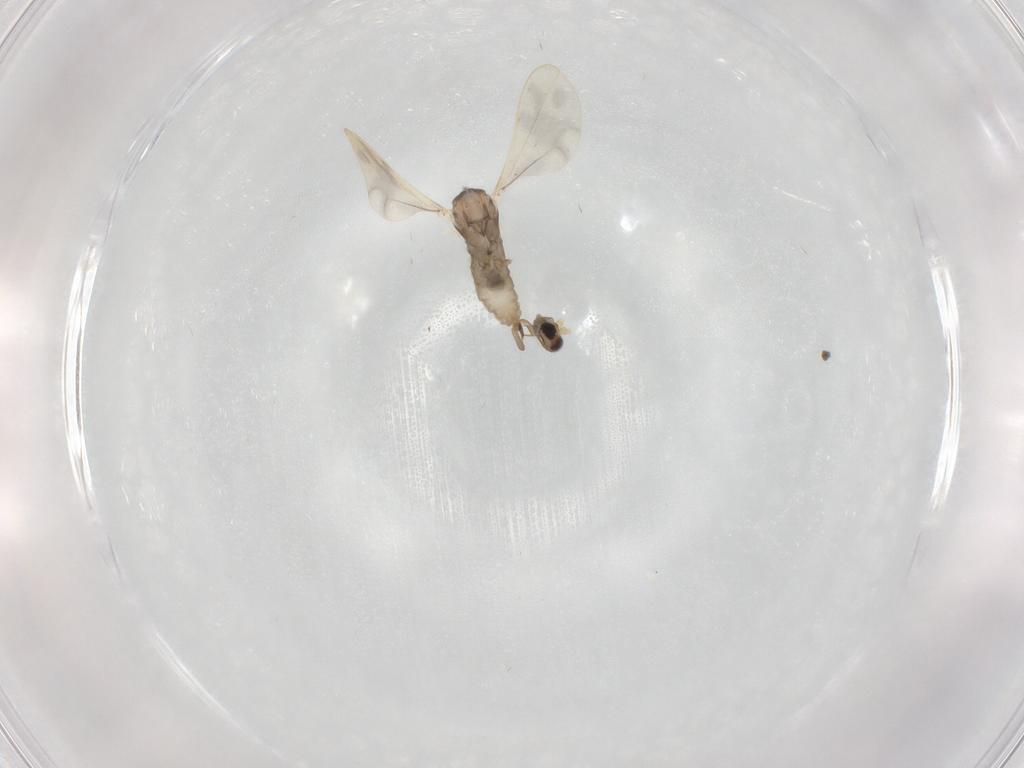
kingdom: Animalia
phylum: Arthropoda
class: Insecta
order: Diptera
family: Cecidomyiidae
